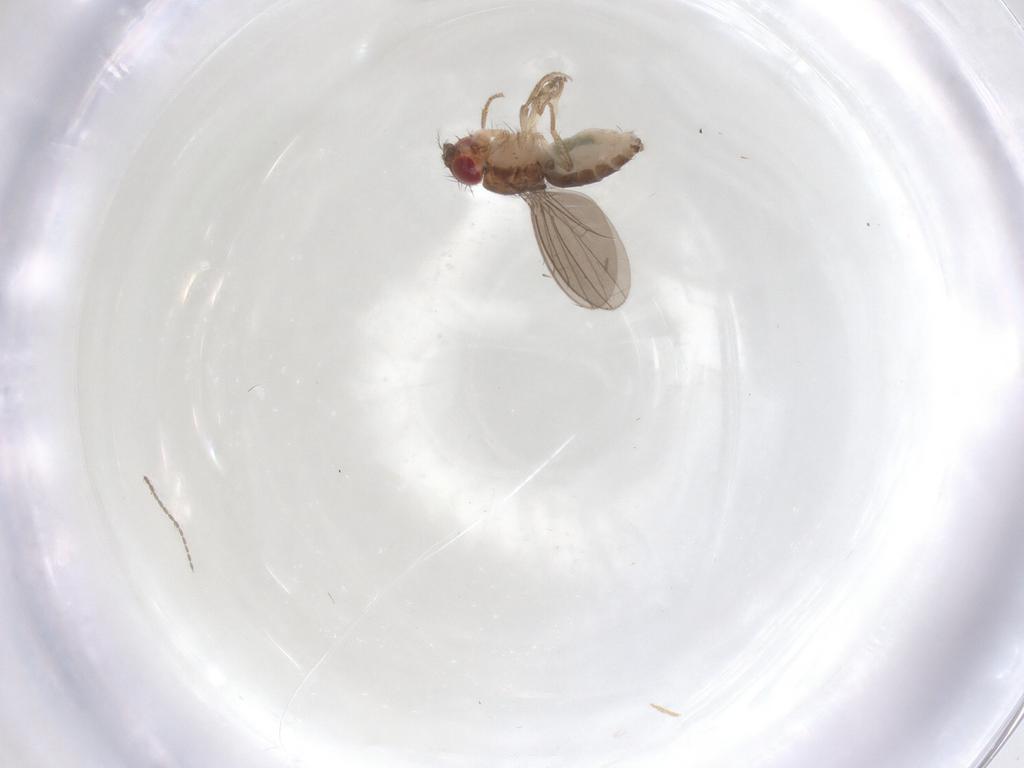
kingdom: Animalia
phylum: Arthropoda
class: Insecta
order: Diptera
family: Drosophilidae
